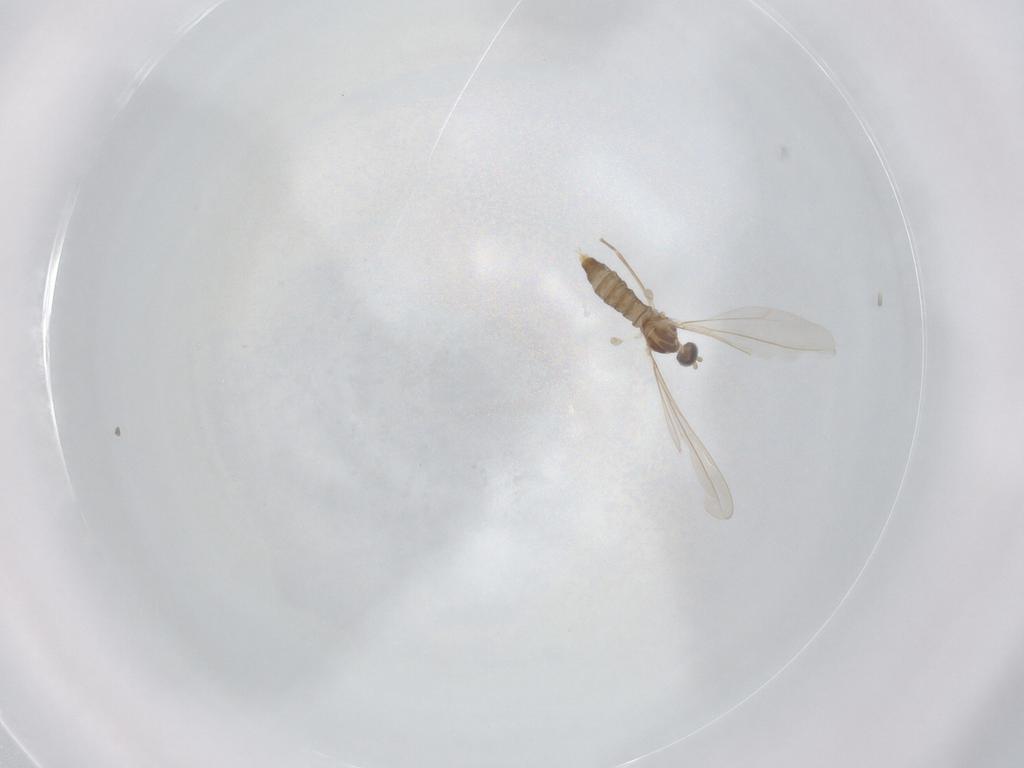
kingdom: Animalia
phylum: Arthropoda
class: Insecta
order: Diptera
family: Cecidomyiidae
